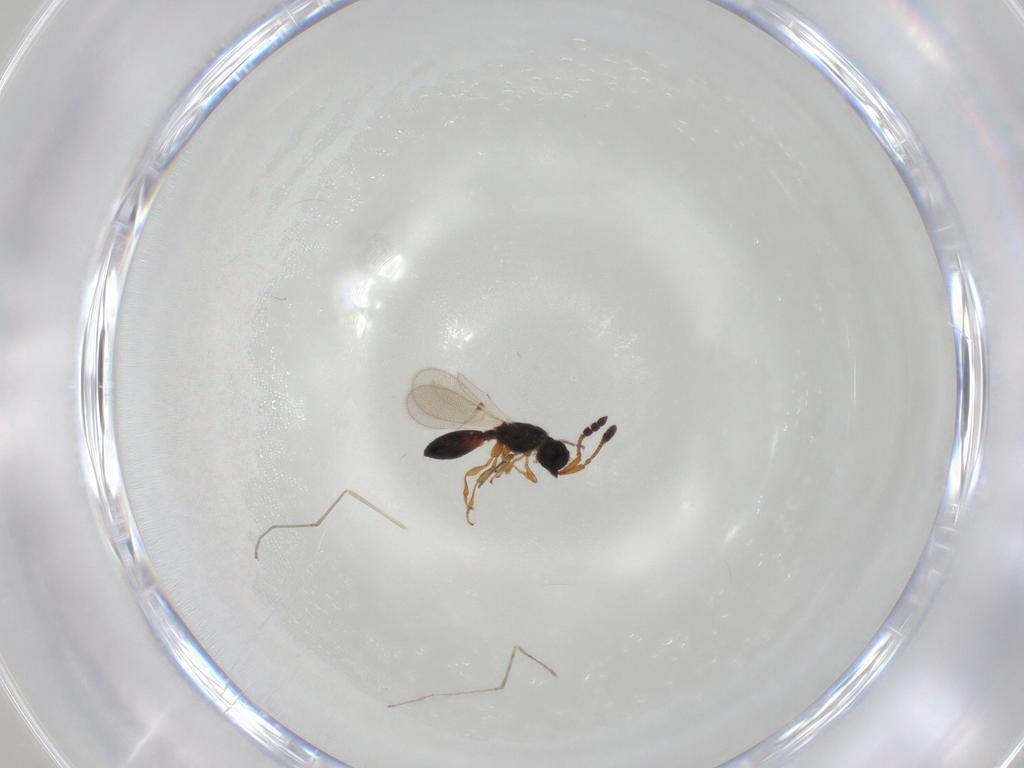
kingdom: Animalia
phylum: Arthropoda
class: Insecta
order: Hymenoptera
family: Diapriidae
